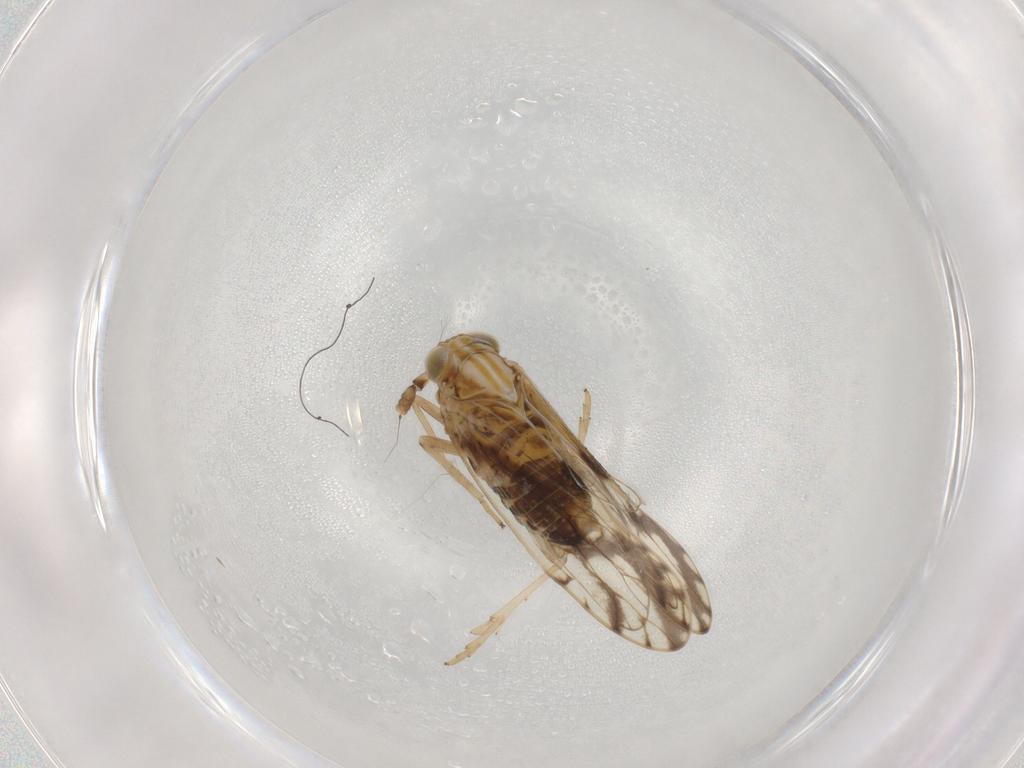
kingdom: Animalia
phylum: Arthropoda
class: Insecta
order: Hemiptera
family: Delphacidae
